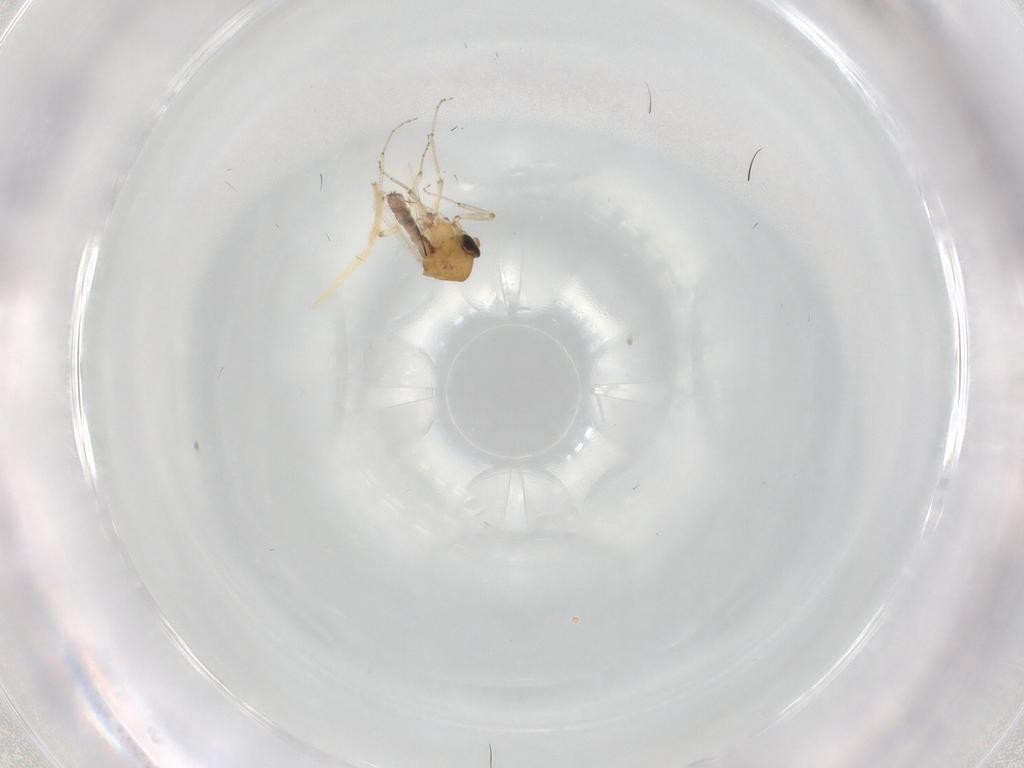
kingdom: Animalia
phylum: Arthropoda
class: Insecta
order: Diptera
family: Ceratopogonidae
